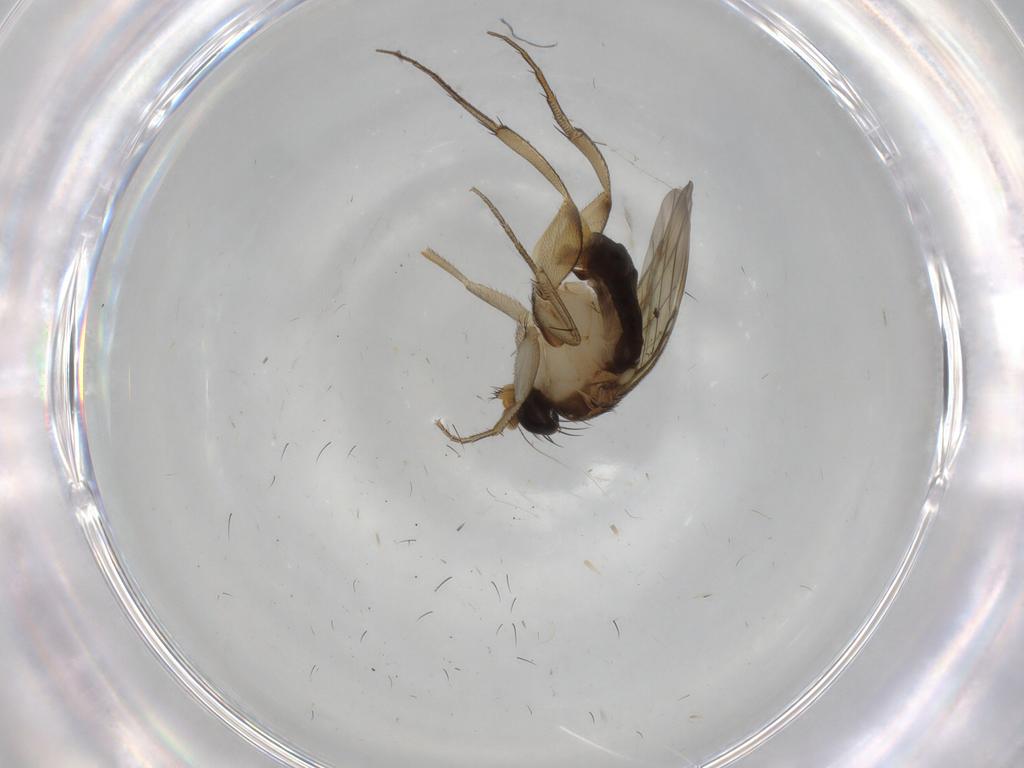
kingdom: Animalia
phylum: Arthropoda
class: Insecta
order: Diptera
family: Phoridae
